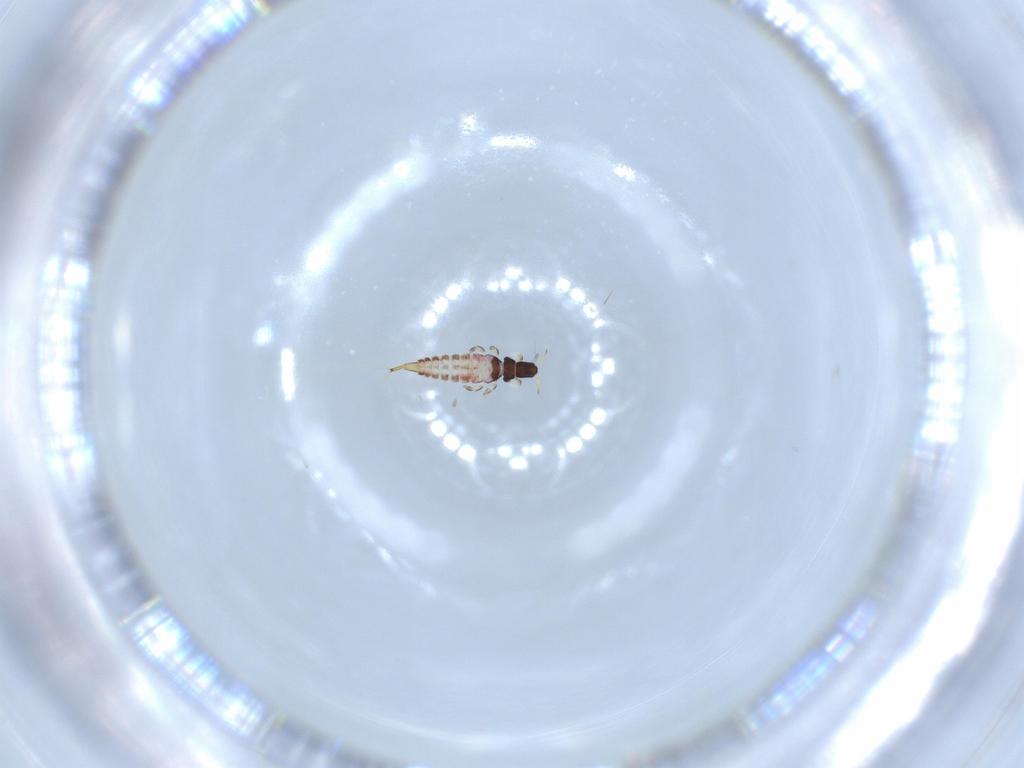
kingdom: Animalia
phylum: Arthropoda
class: Insecta
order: Thysanoptera
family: Phlaeothripidae
